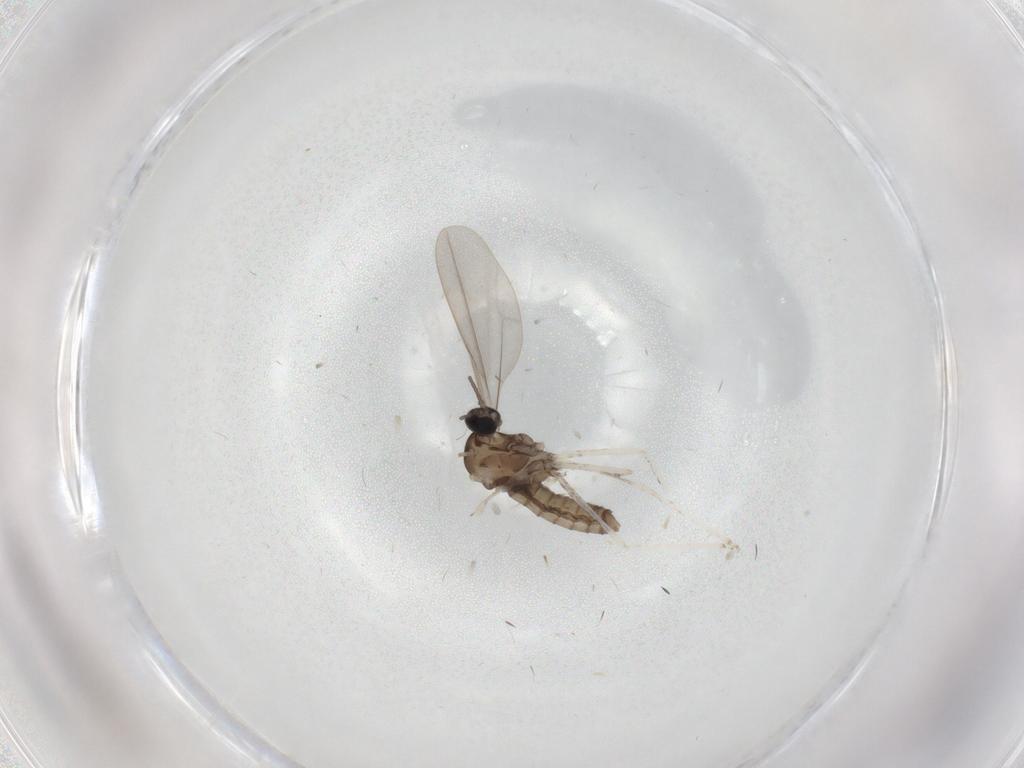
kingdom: Animalia
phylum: Arthropoda
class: Insecta
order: Diptera
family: Cecidomyiidae
